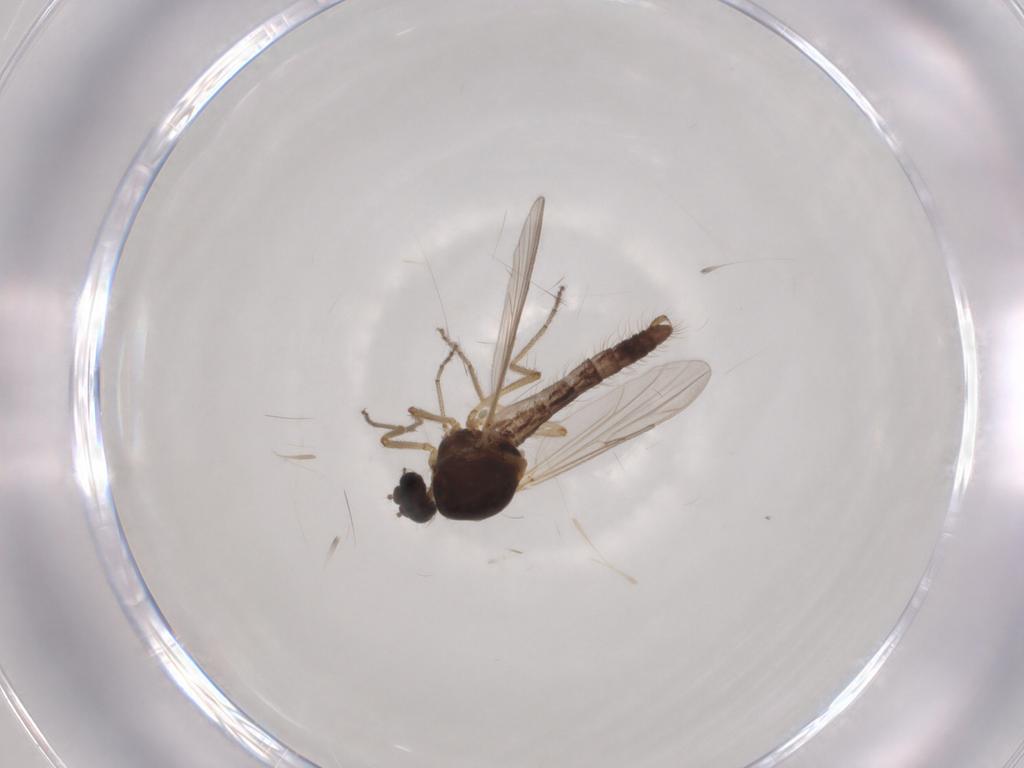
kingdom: Animalia
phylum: Arthropoda
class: Insecta
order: Diptera
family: Ceratopogonidae
